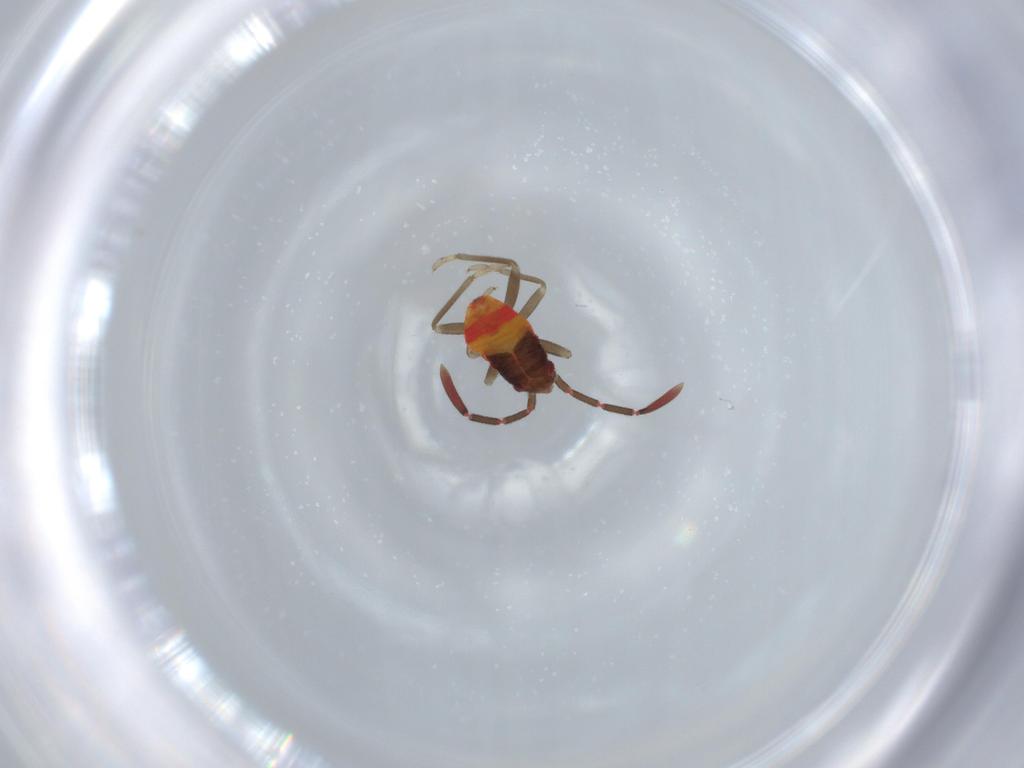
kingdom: Animalia
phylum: Arthropoda
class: Insecta
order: Hemiptera
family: Rhyparochromidae
